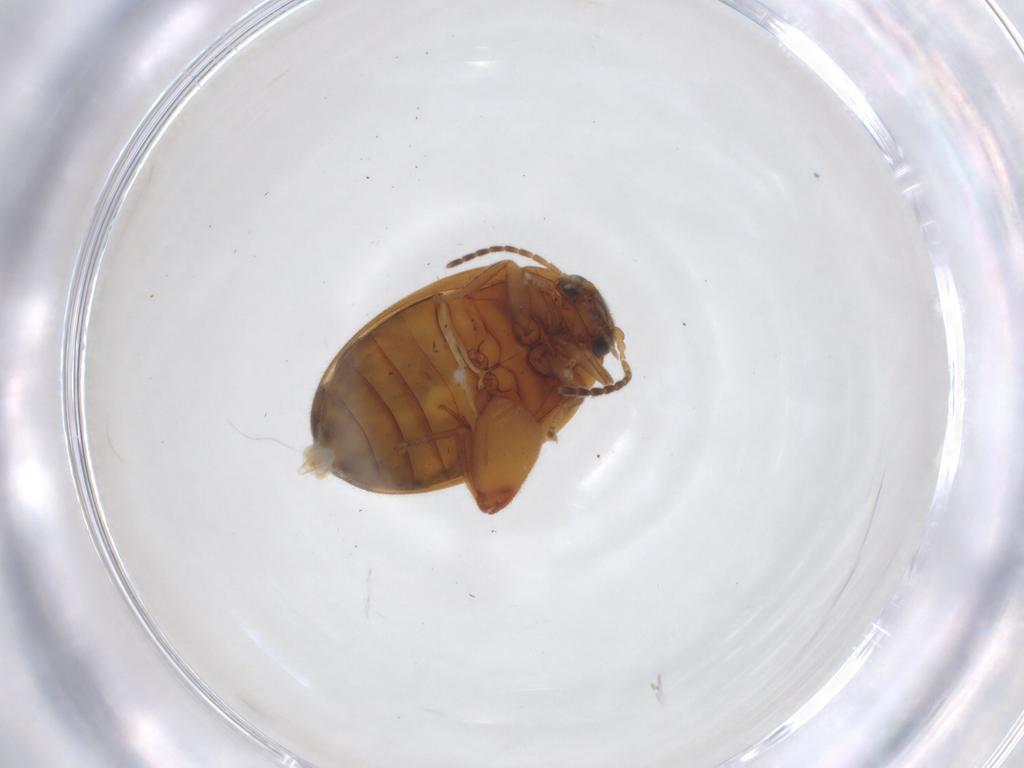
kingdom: Animalia
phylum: Arthropoda
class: Insecta
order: Coleoptera
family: Scirtidae
